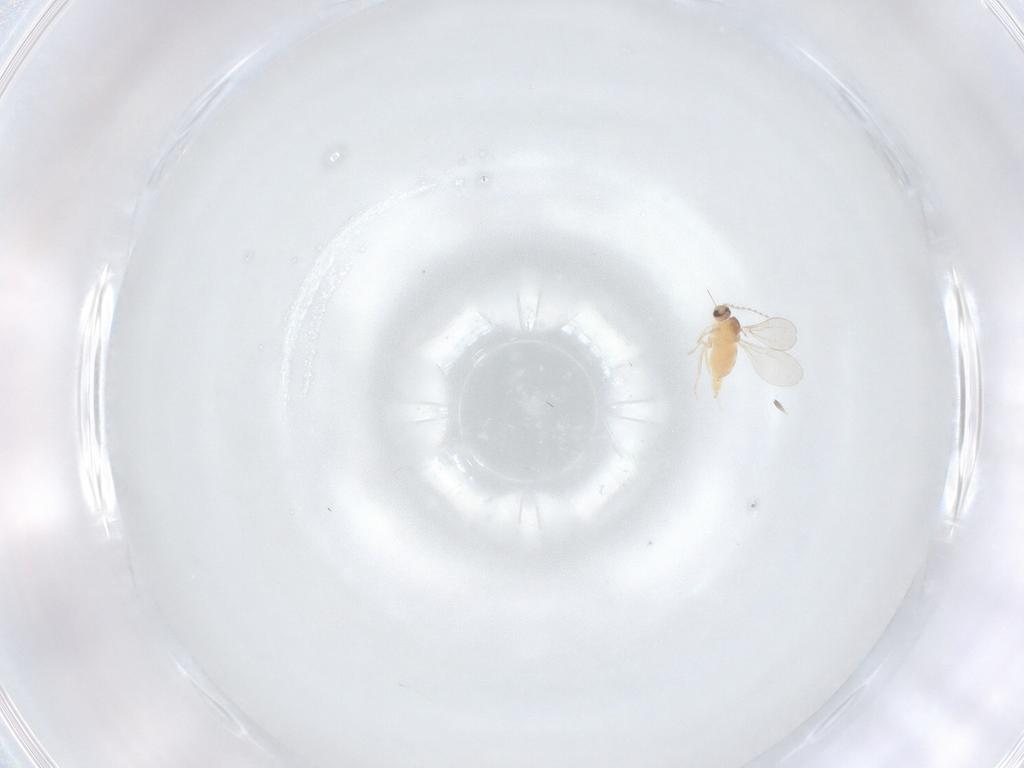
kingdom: Animalia
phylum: Arthropoda
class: Insecta
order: Diptera
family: Cecidomyiidae
